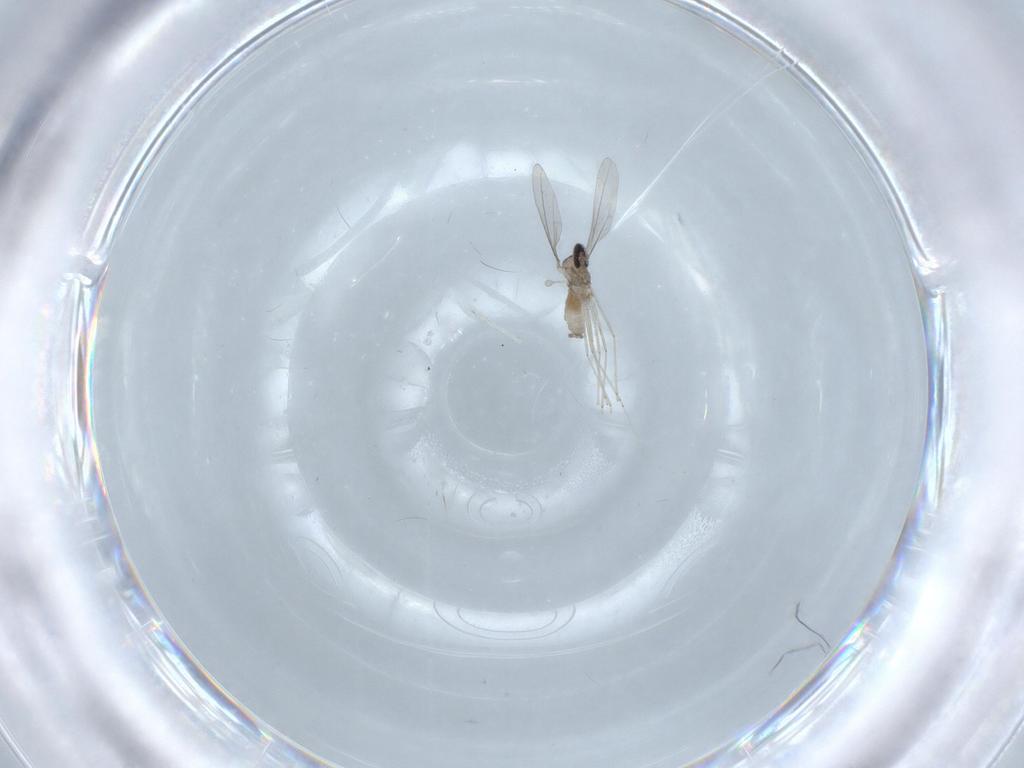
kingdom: Animalia
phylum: Arthropoda
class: Insecta
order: Diptera
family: Cecidomyiidae
